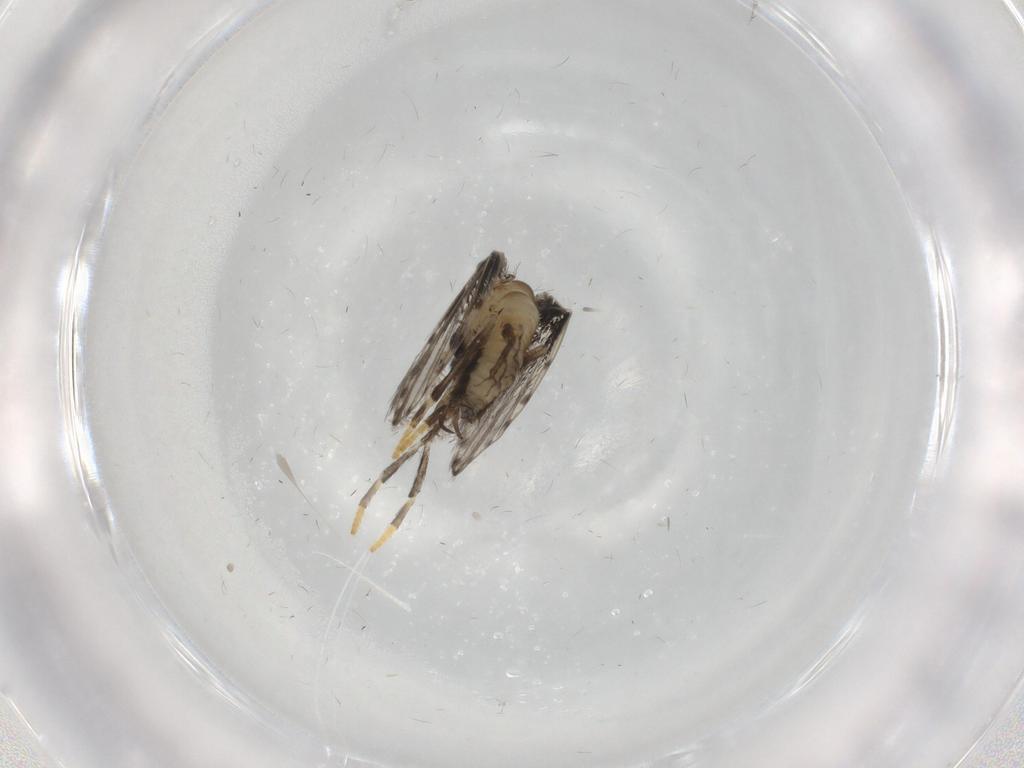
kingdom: Animalia
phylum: Arthropoda
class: Insecta
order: Diptera
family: Psychodidae
